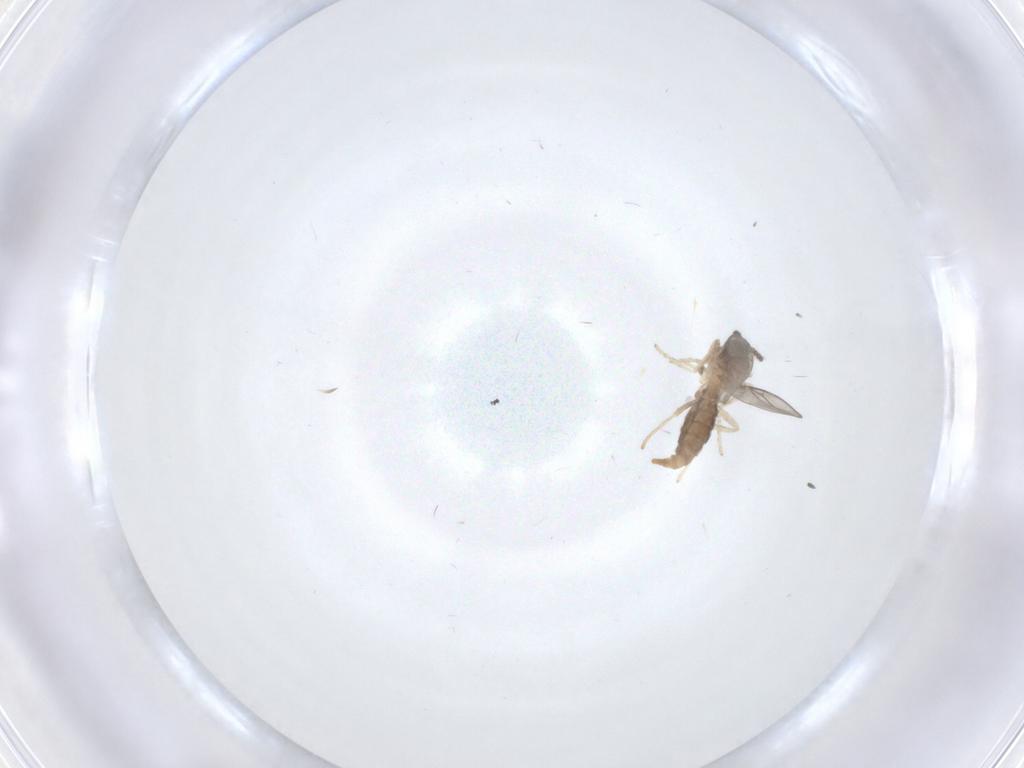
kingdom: Animalia
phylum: Arthropoda
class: Insecta
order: Diptera
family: Cecidomyiidae
